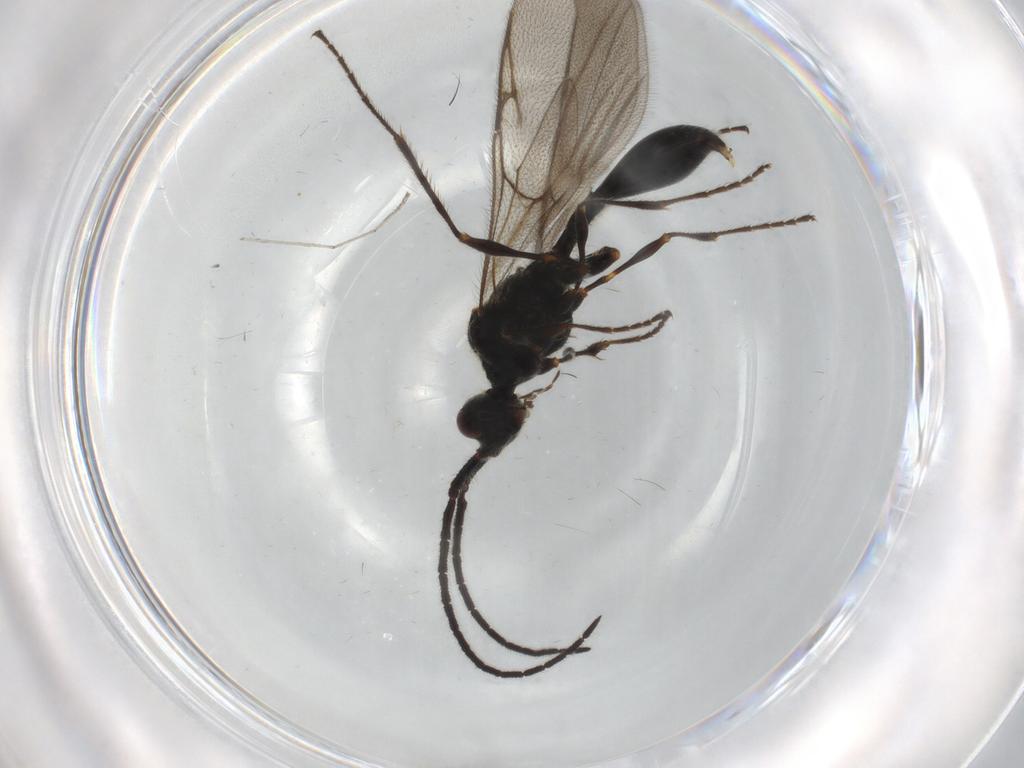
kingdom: Animalia
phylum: Arthropoda
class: Insecta
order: Hymenoptera
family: Diapriidae
